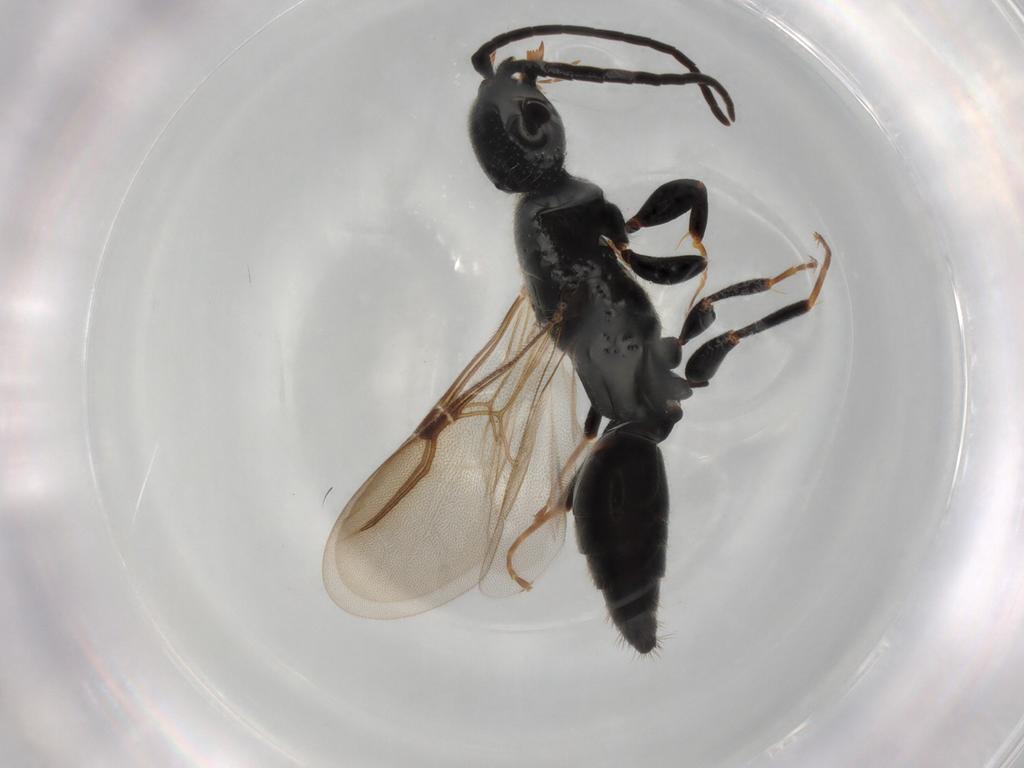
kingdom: Animalia
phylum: Arthropoda
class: Insecta
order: Hymenoptera
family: Bethylidae
